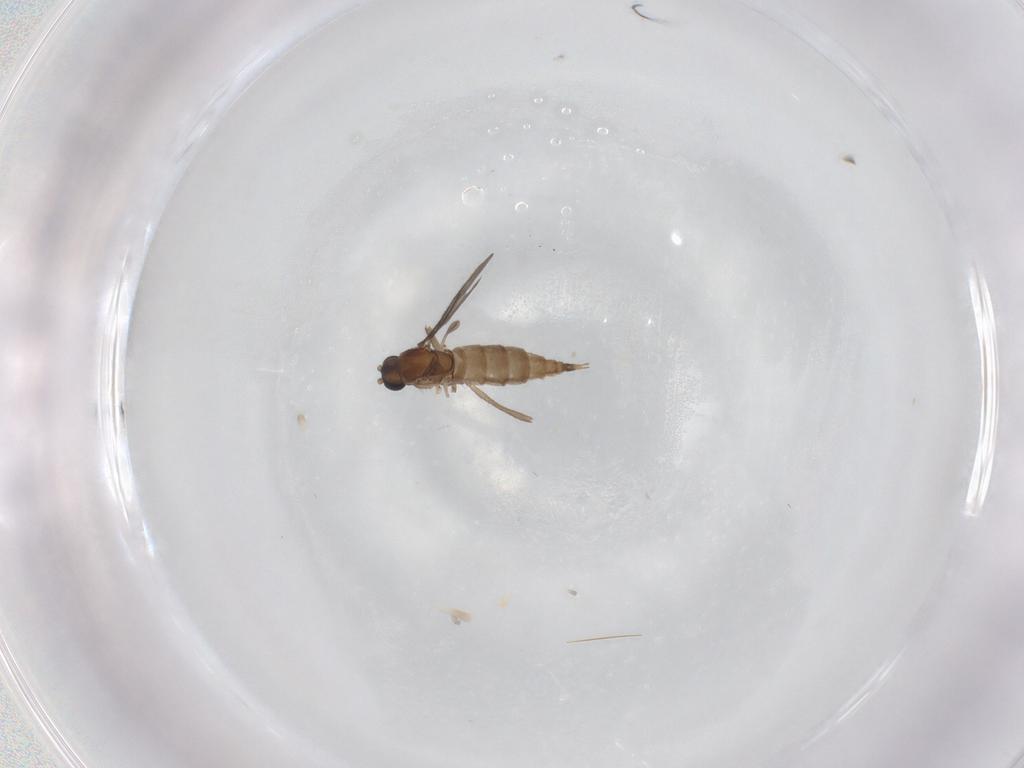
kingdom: Animalia
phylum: Arthropoda
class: Insecta
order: Diptera
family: Sciaridae
